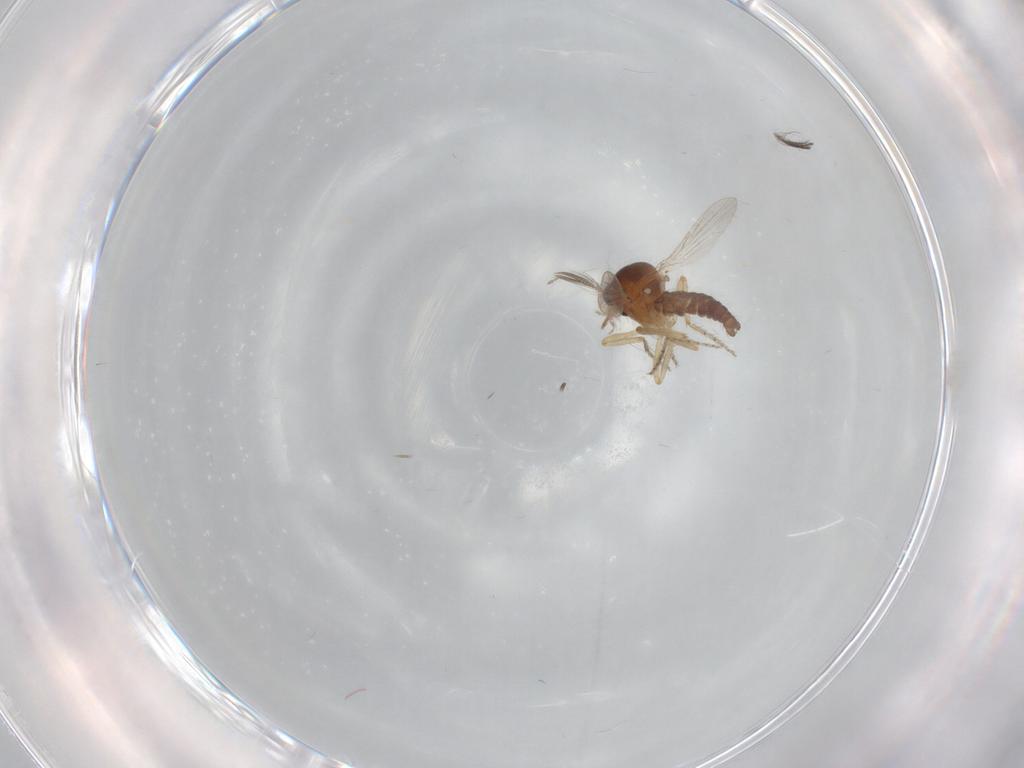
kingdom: Animalia
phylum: Arthropoda
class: Insecta
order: Diptera
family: Ceratopogonidae
